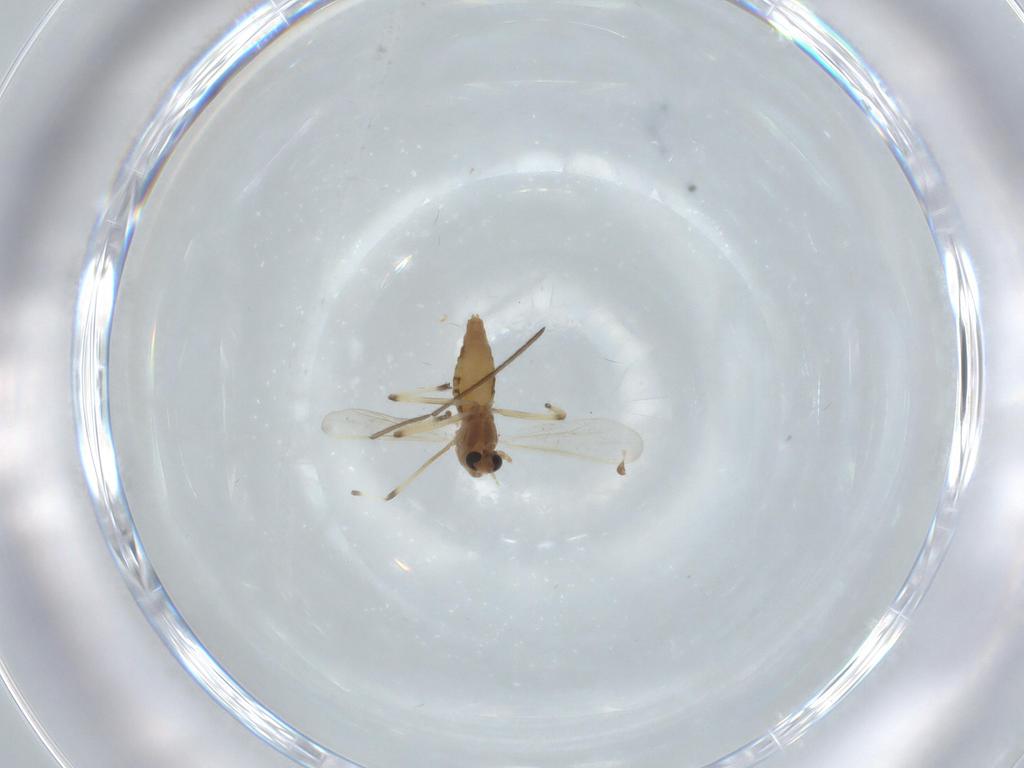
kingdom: Animalia
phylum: Arthropoda
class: Insecta
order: Diptera
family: Chironomidae
